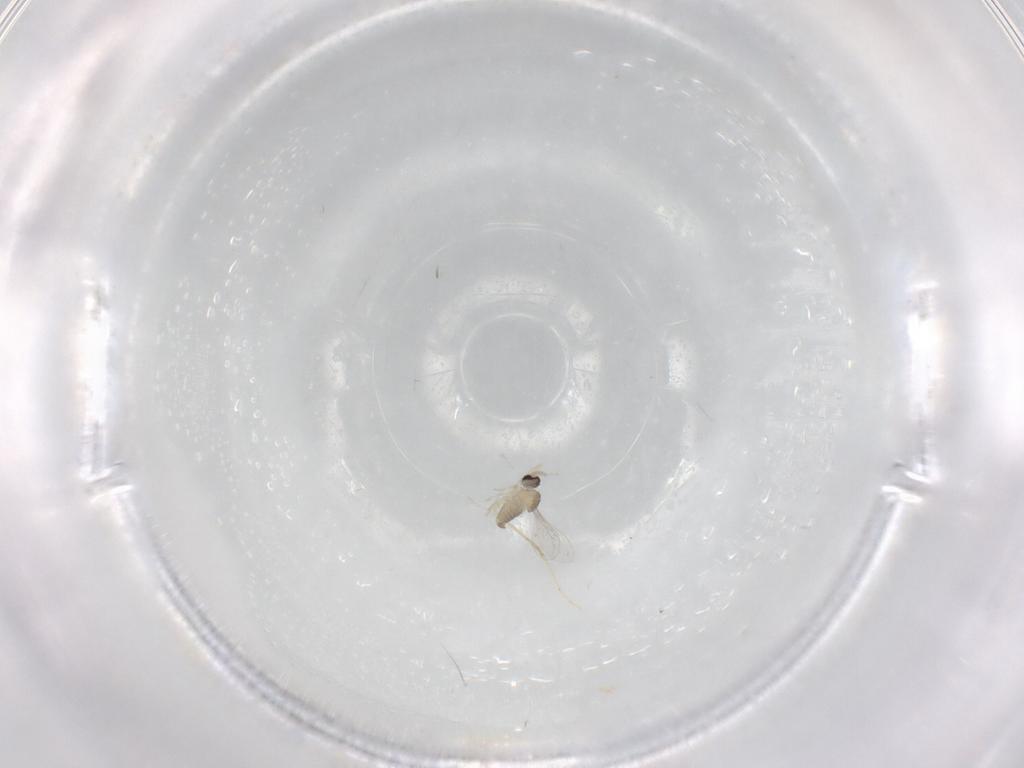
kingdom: Animalia
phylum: Arthropoda
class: Insecta
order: Diptera
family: Cecidomyiidae
